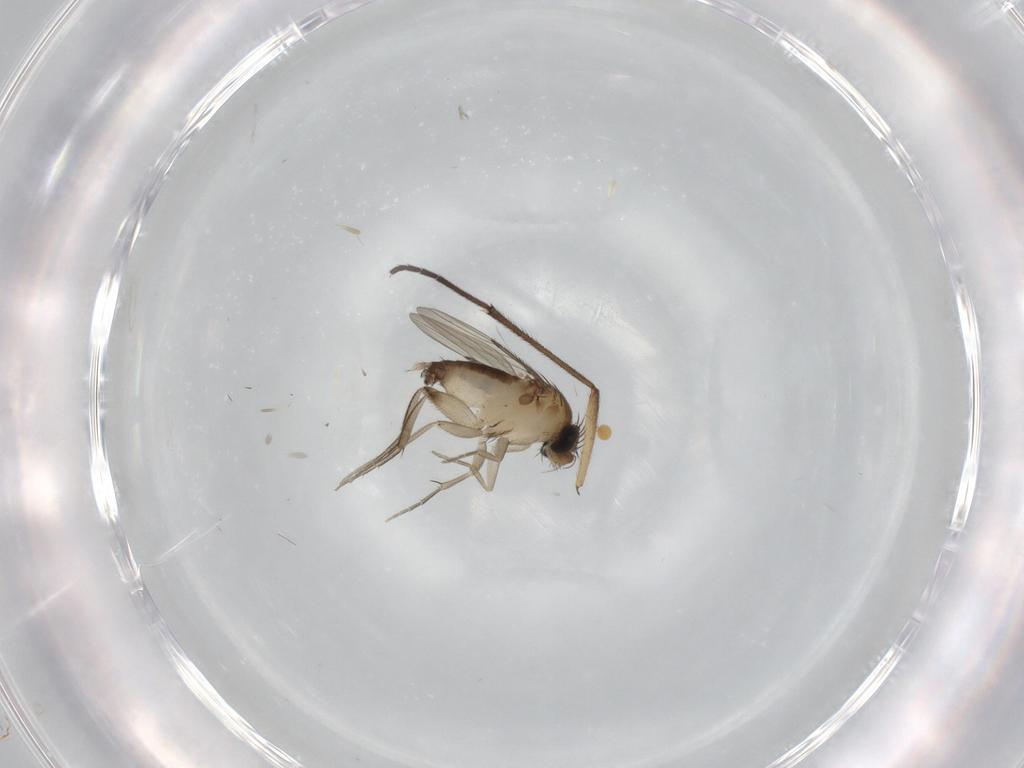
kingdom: Animalia
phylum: Arthropoda
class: Insecta
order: Diptera
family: Phoridae
